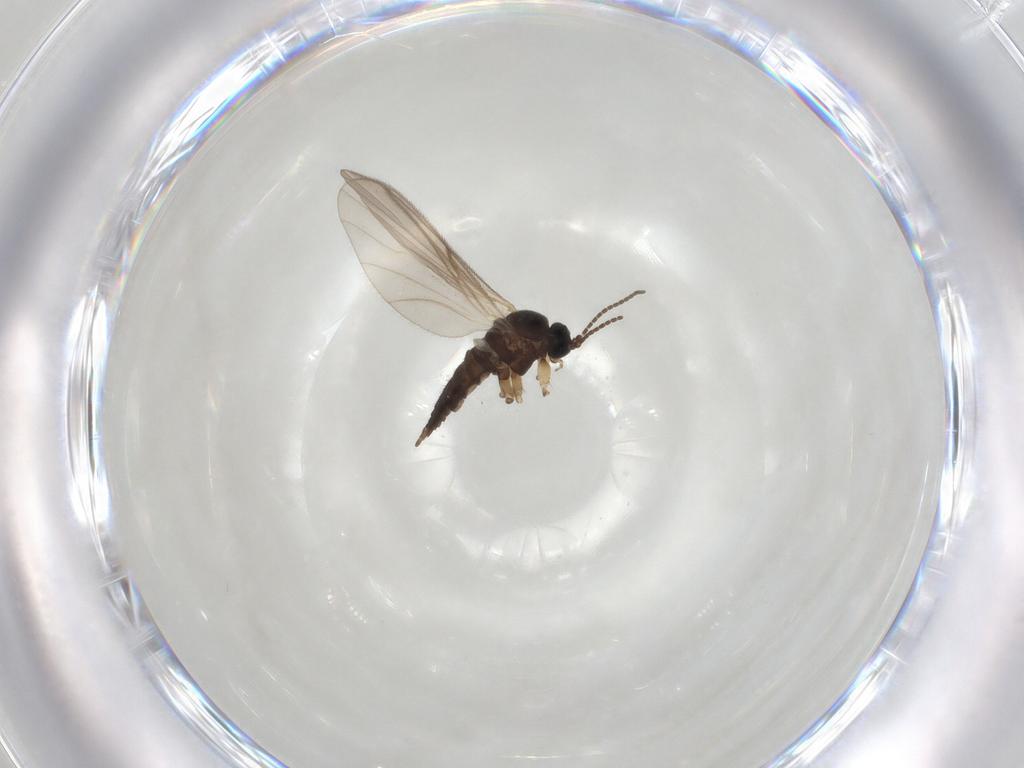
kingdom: Animalia
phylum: Arthropoda
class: Insecta
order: Diptera
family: Sciaridae
